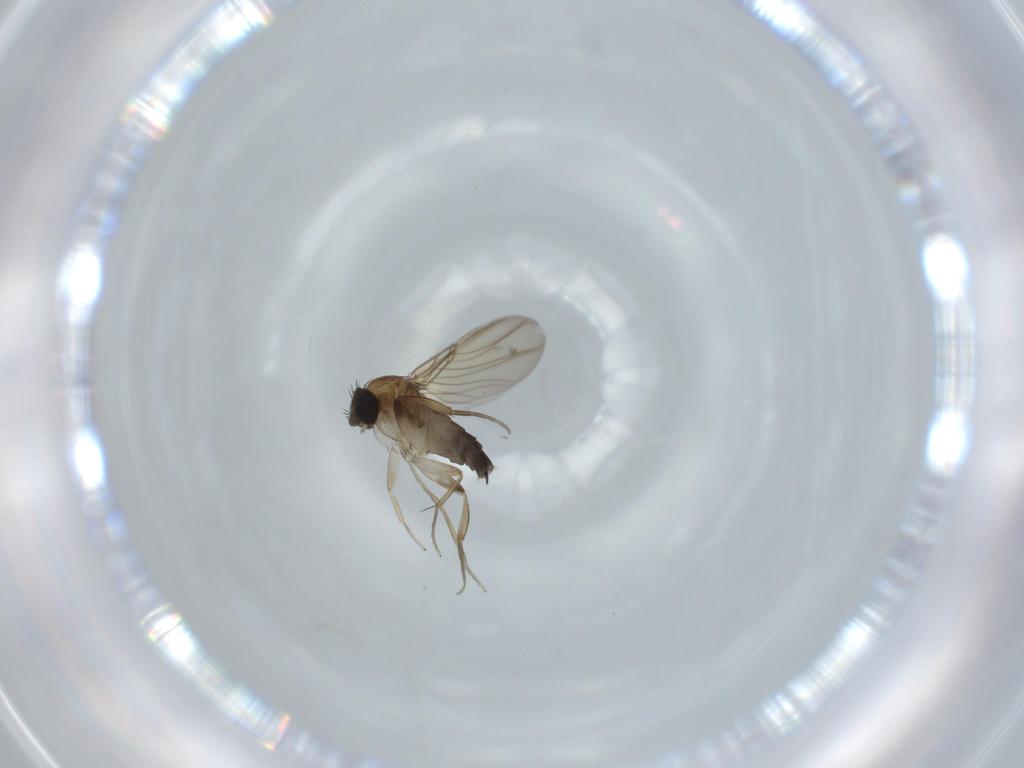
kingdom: Animalia
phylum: Arthropoda
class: Insecta
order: Diptera
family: Phoridae
